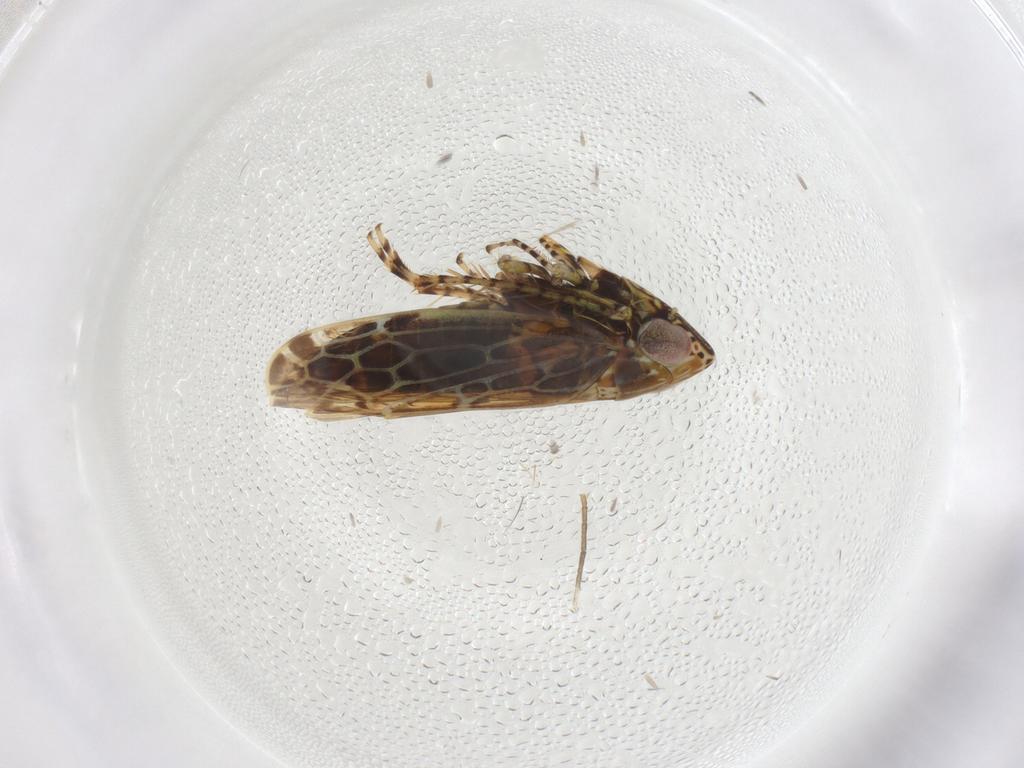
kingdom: Animalia
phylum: Arthropoda
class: Insecta
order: Hemiptera
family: Cicadellidae
